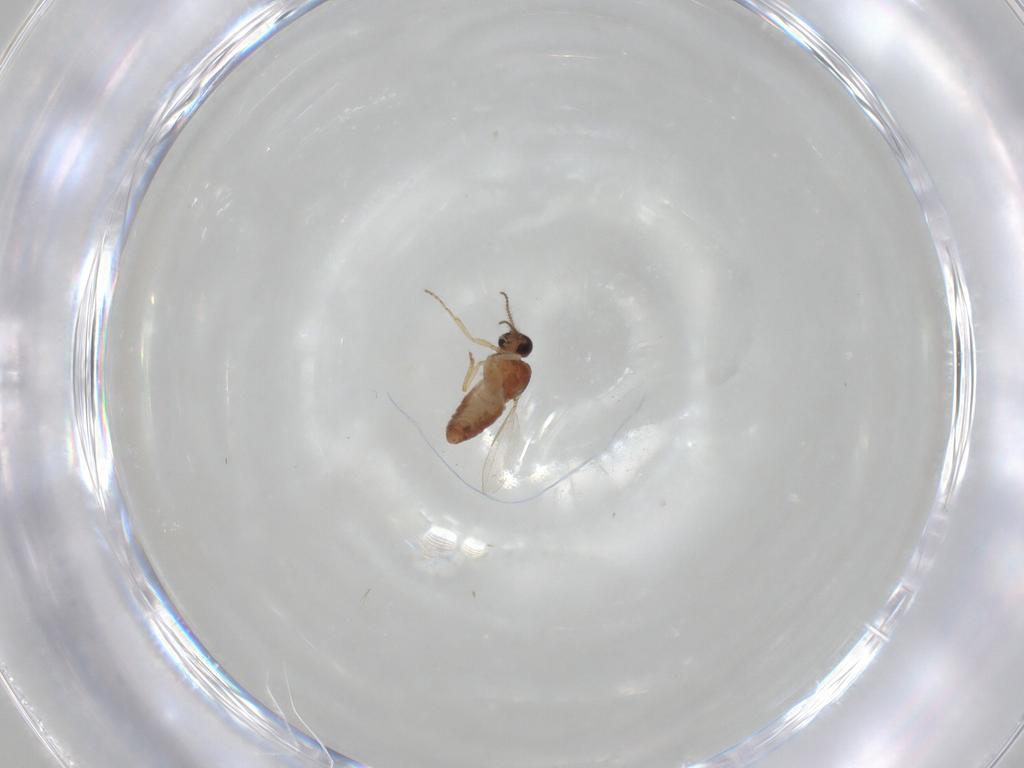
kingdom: Animalia
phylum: Arthropoda
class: Insecta
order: Diptera
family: Ceratopogonidae
